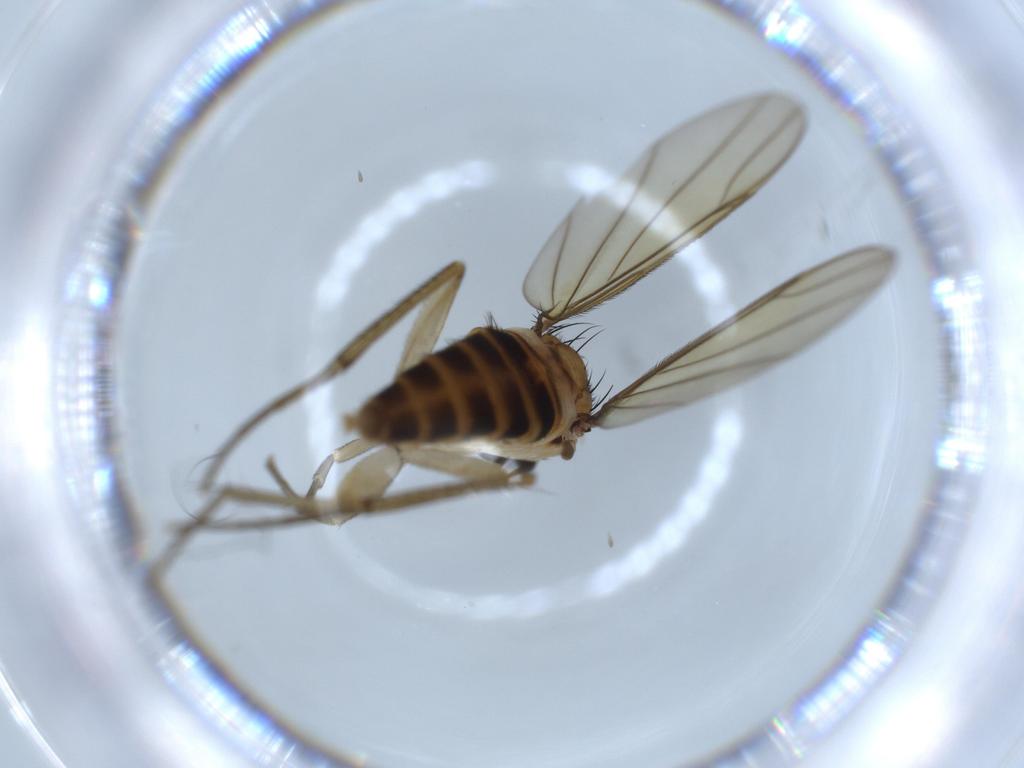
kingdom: Animalia
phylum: Arthropoda
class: Insecta
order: Diptera
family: Sciaridae
